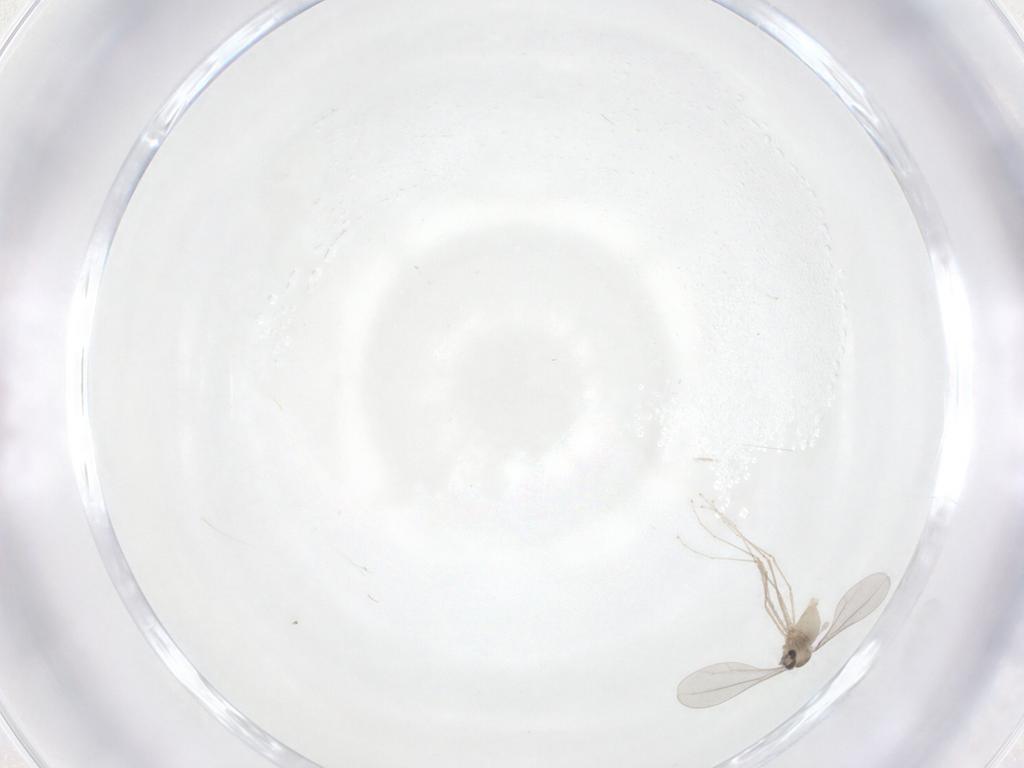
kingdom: Animalia
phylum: Arthropoda
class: Insecta
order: Diptera
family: Cecidomyiidae
